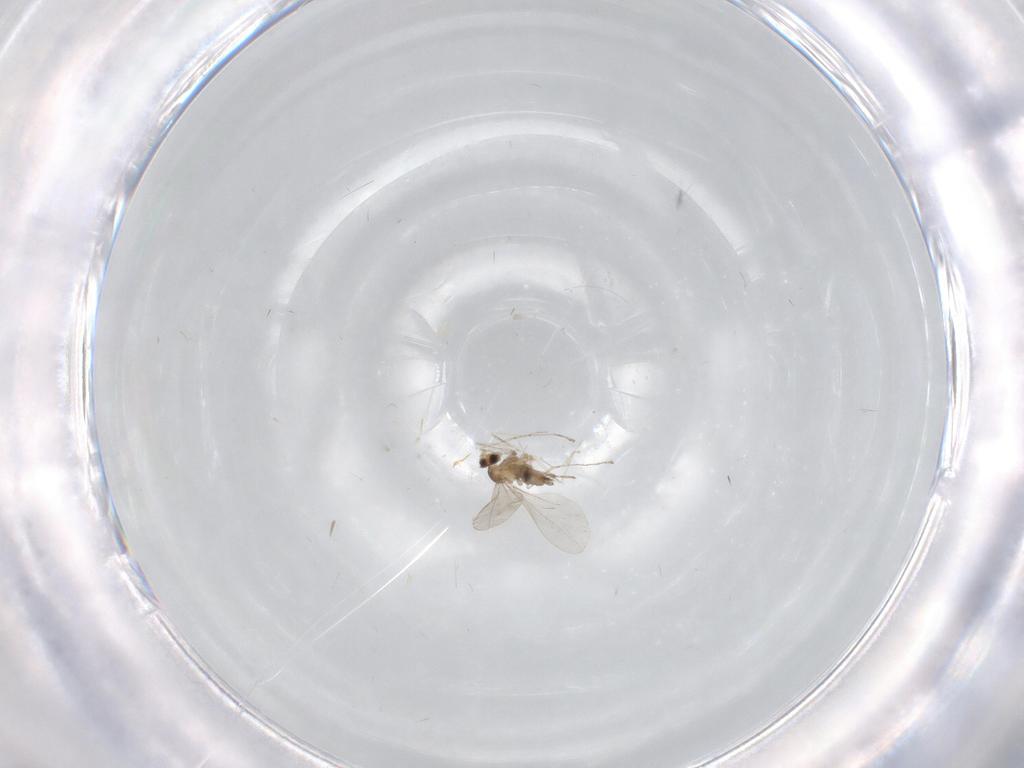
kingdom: Animalia
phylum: Arthropoda
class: Insecta
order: Diptera
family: Cecidomyiidae
